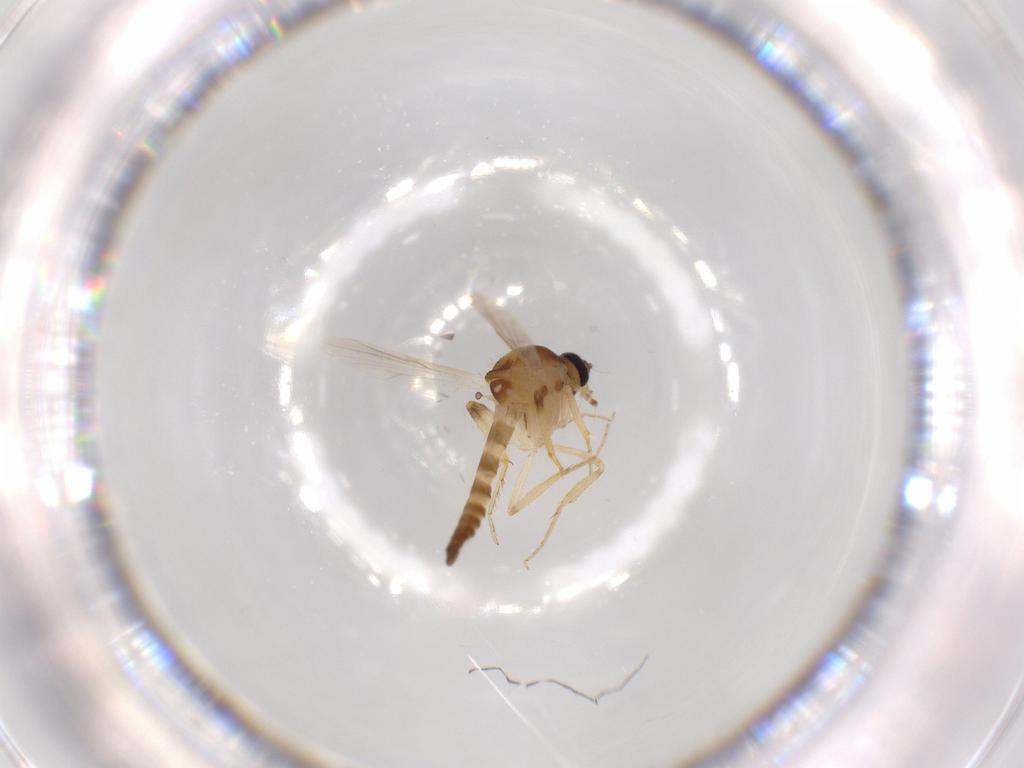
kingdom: Animalia
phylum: Arthropoda
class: Insecta
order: Diptera
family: Ceratopogonidae
